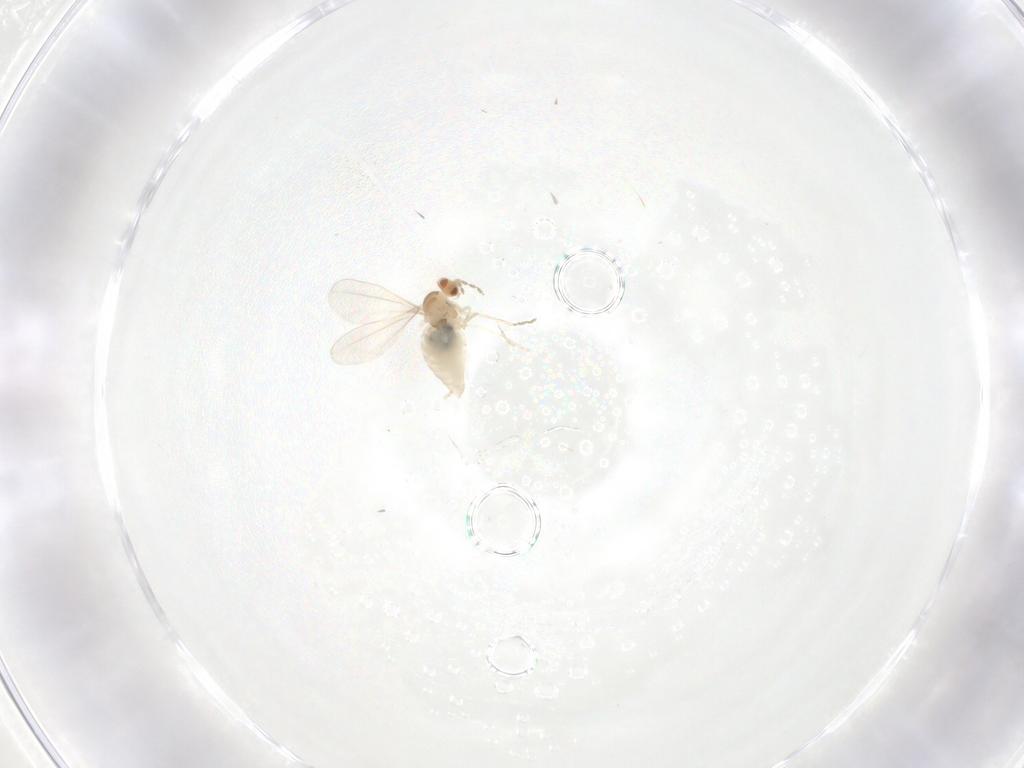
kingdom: Animalia
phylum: Arthropoda
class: Insecta
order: Diptera
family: Cecidomyiidae
